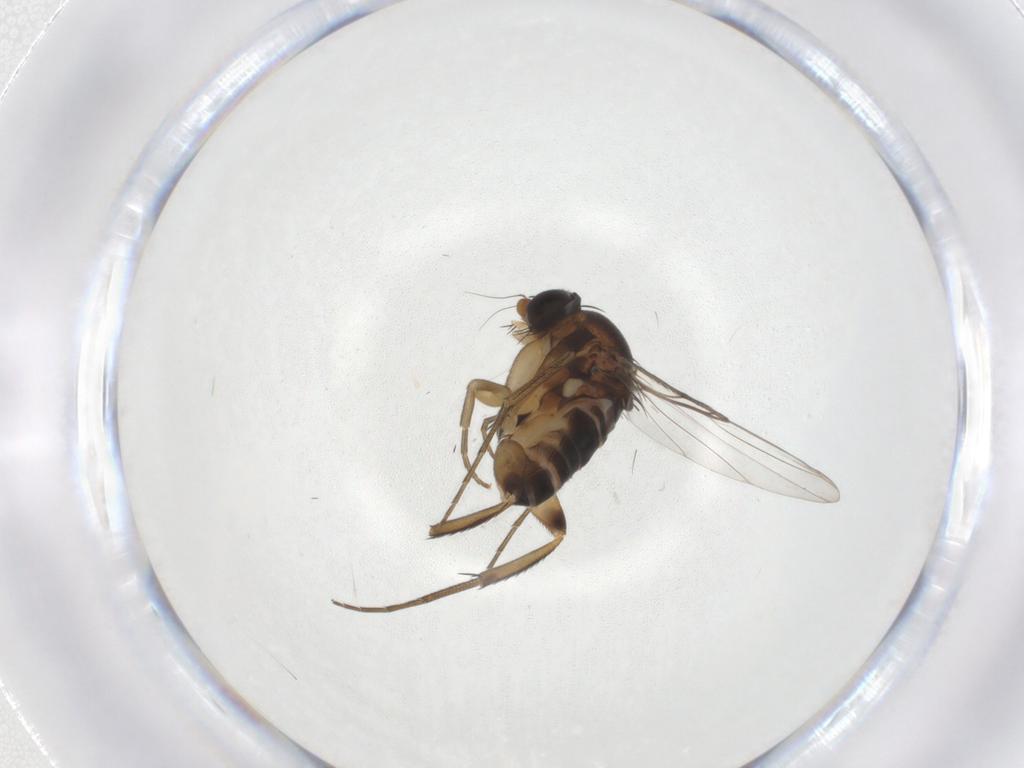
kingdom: Animalia
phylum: Arthropoda
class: Insecta
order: Diptera
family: Phoridae
